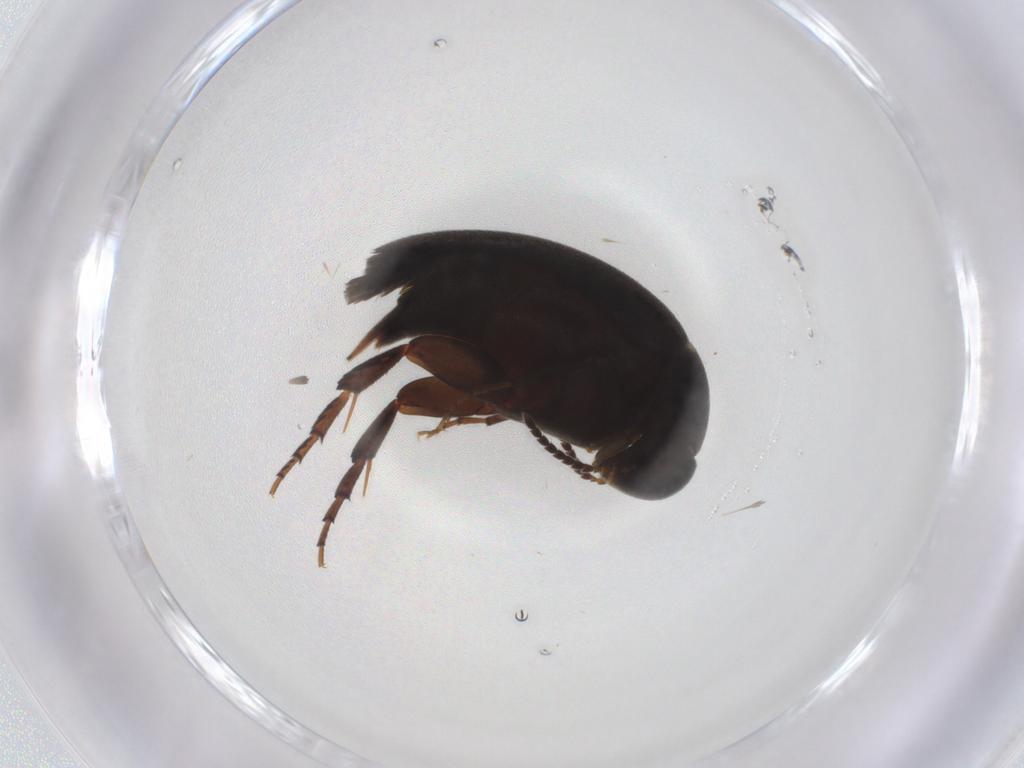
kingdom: Animalia
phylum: Arthropoda
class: Insecta
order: Coleoptera
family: Mordellidae
